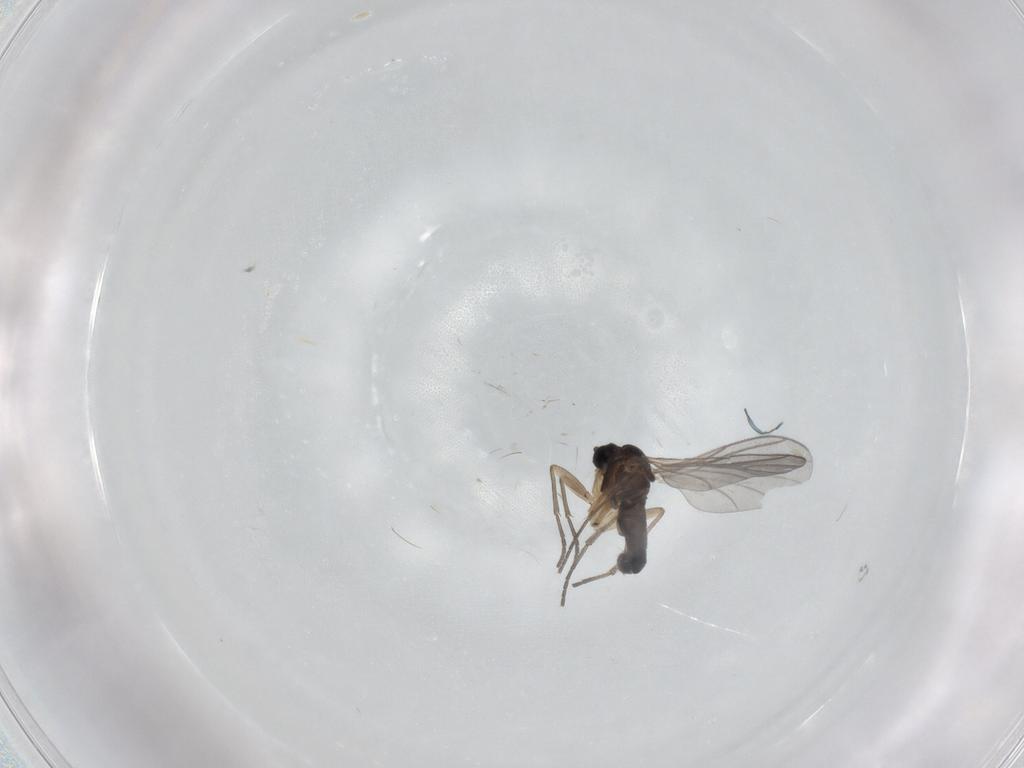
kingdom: Animalia
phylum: Arthropoda
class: Insecta
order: Diptera
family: Sciaridae
